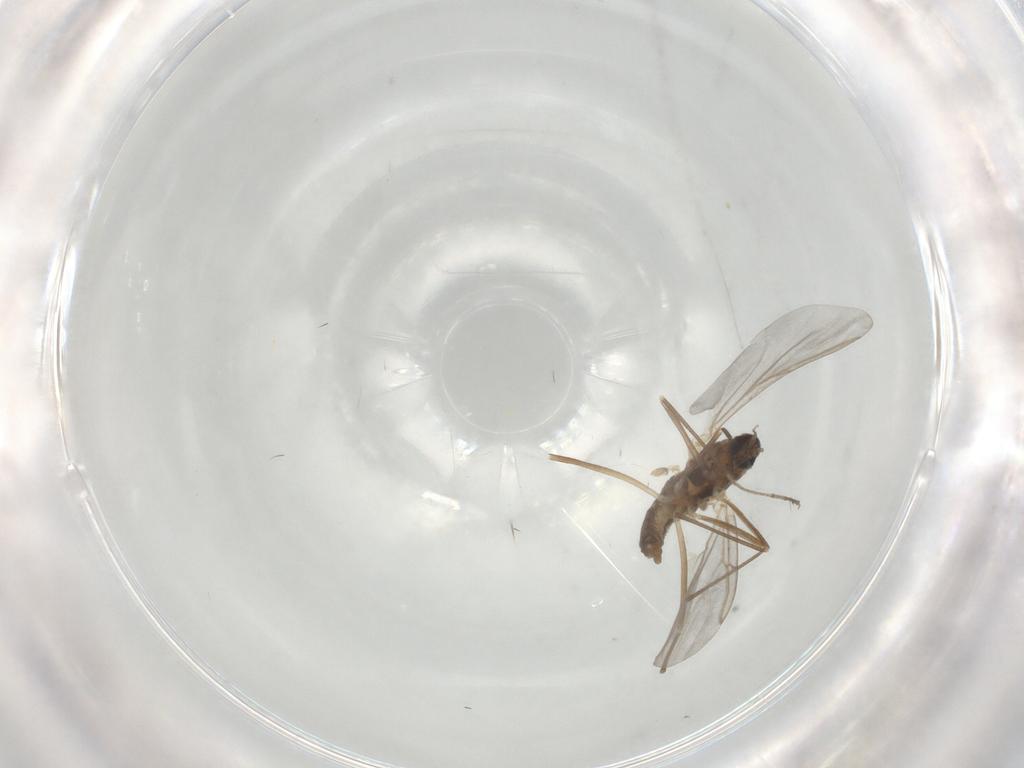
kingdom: Animalia
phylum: Arthropoda
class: Insecta
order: Diptera
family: Muscidae
